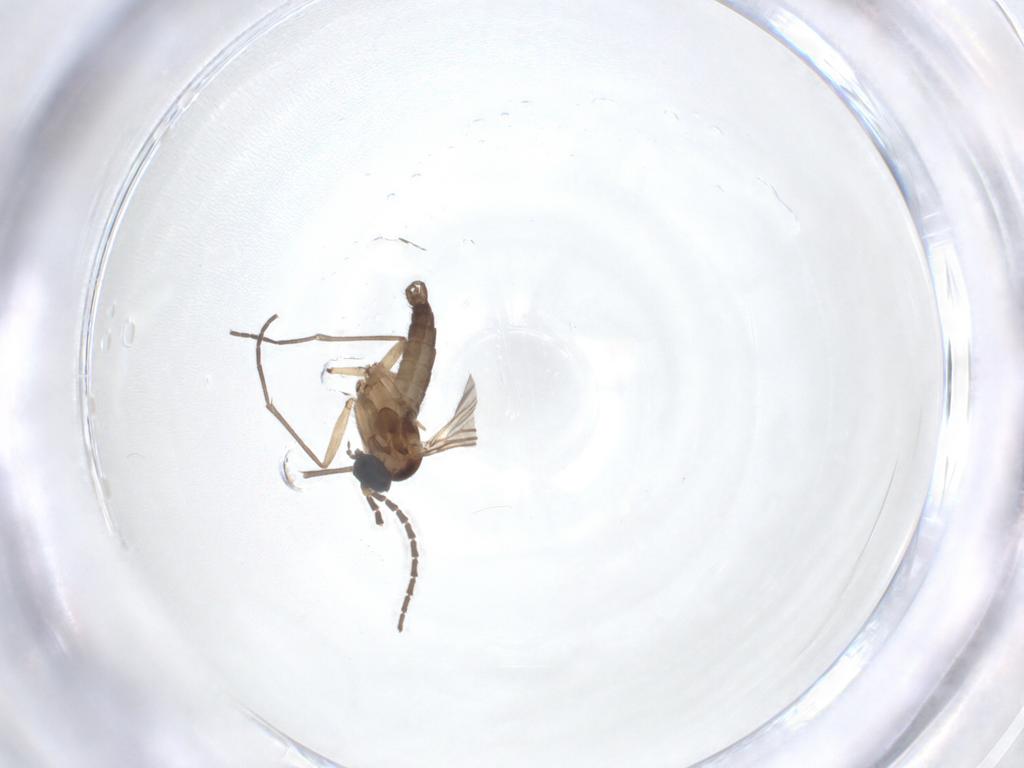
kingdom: Animalia
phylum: Arthropoda
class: Insecta
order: Diptera
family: Sciaridae
